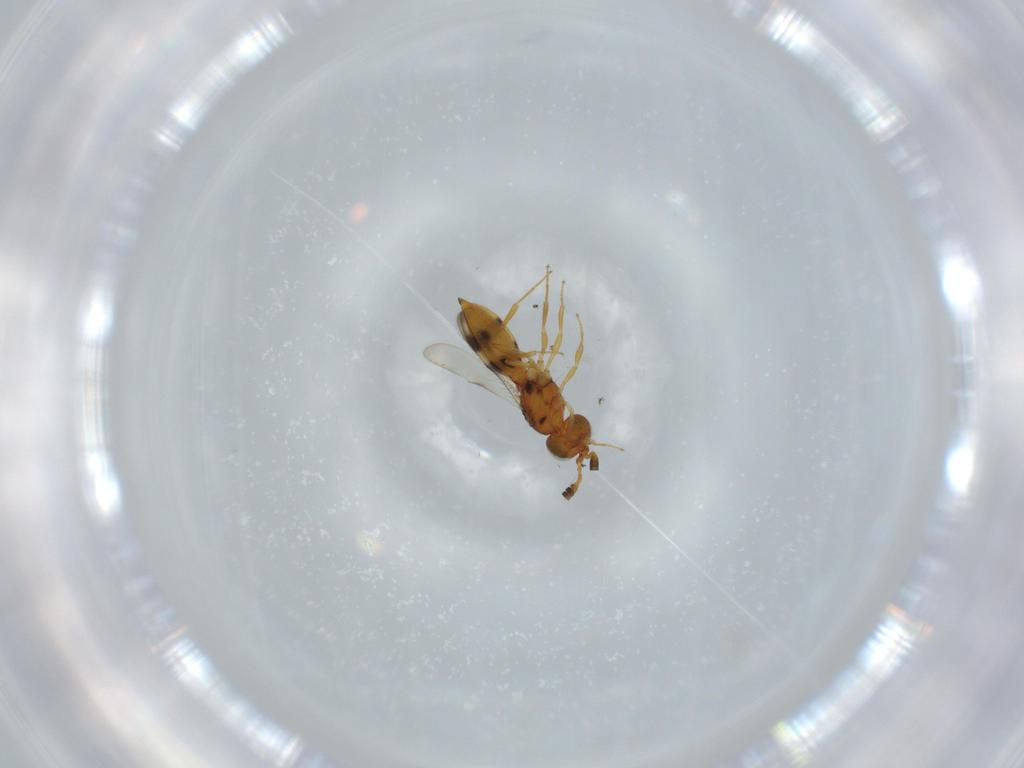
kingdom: Animalia
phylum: Arthropoda
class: Insecta
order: Hymenoptera
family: Scelionidae
